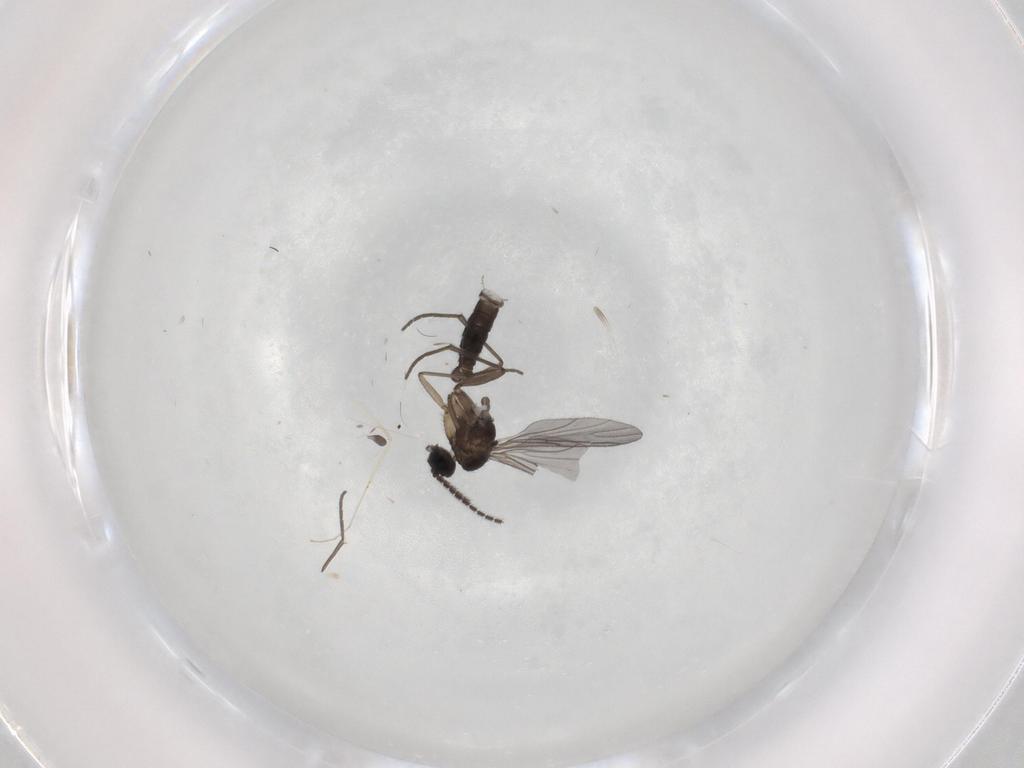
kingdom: Animalia
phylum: Arthropoda
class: Insecta
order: Diptera
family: Sciaridae
